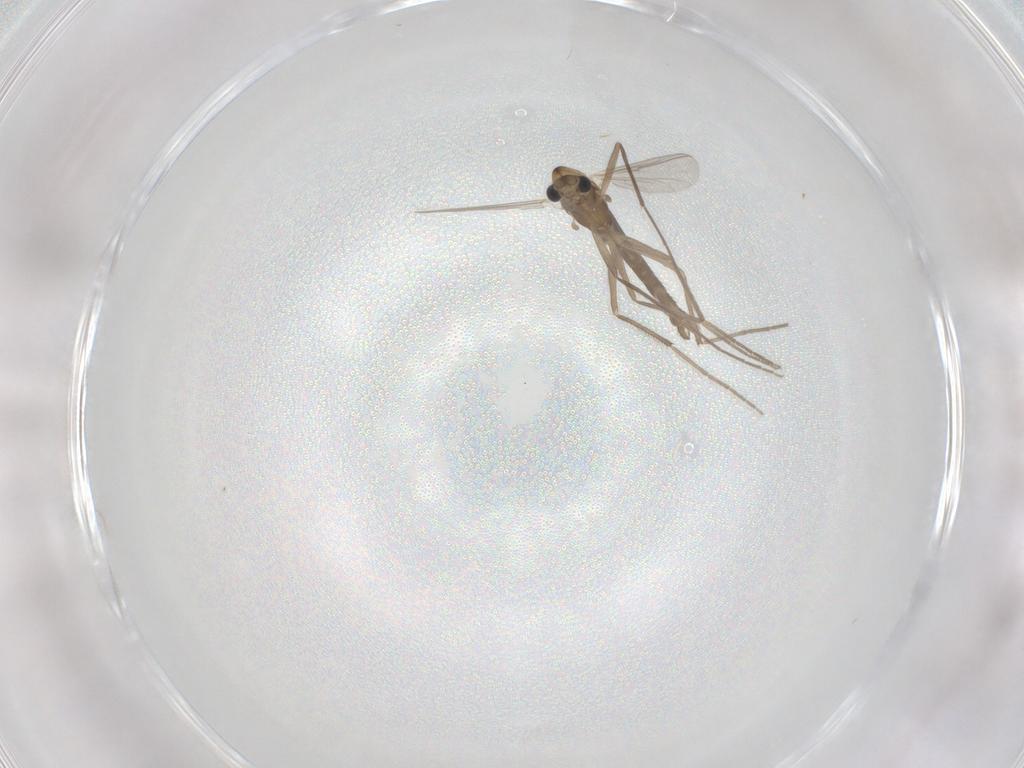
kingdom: Animalia
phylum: Arthropoda
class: Insecta
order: Diptera
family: Chironomidae
